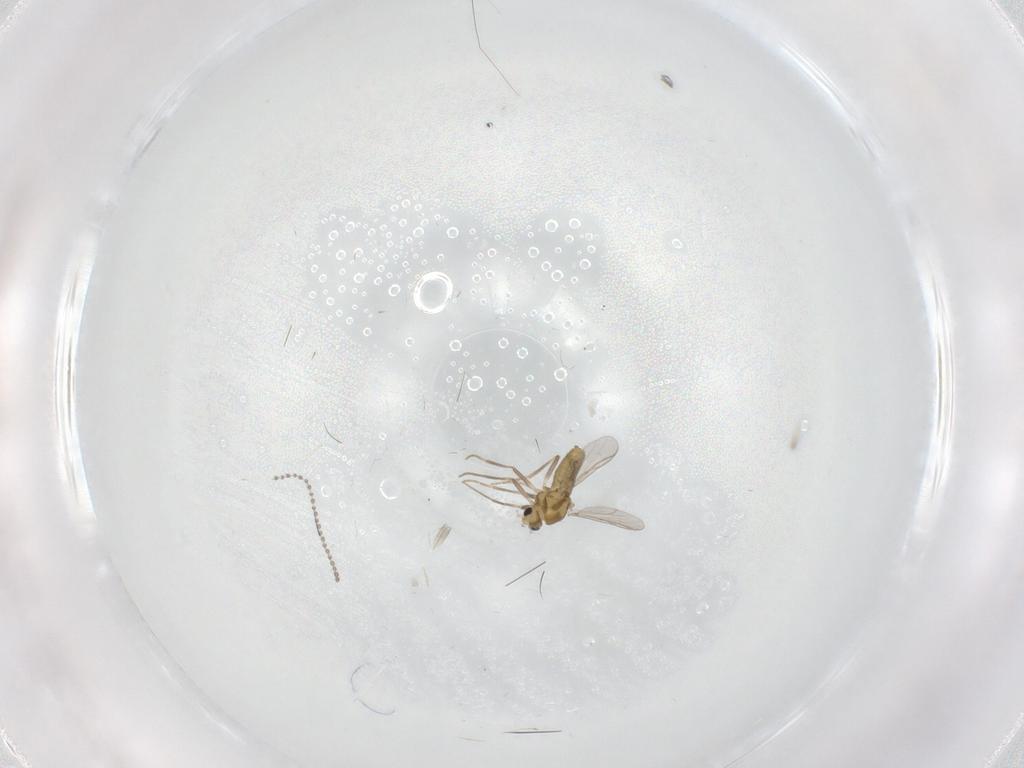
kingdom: Animalia
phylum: Arthropoda
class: Insecta
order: Diptera
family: Chironomidae
